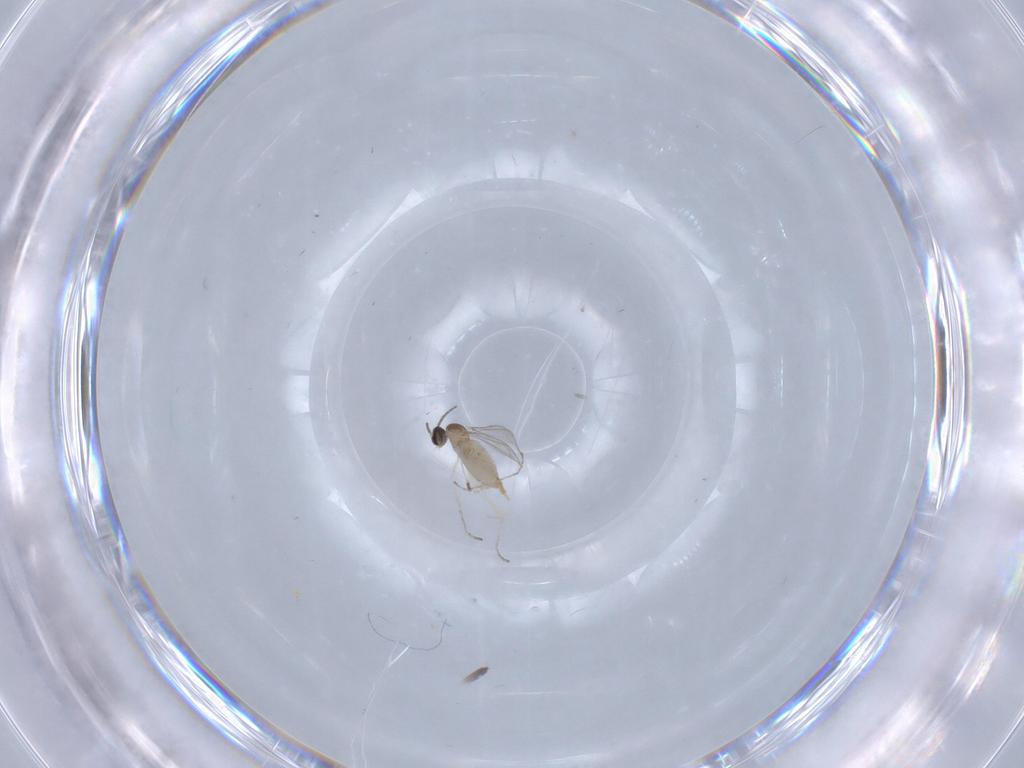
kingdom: Animalia
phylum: Arthropoda
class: Insecta
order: Diptera
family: Cecidomyiidae
